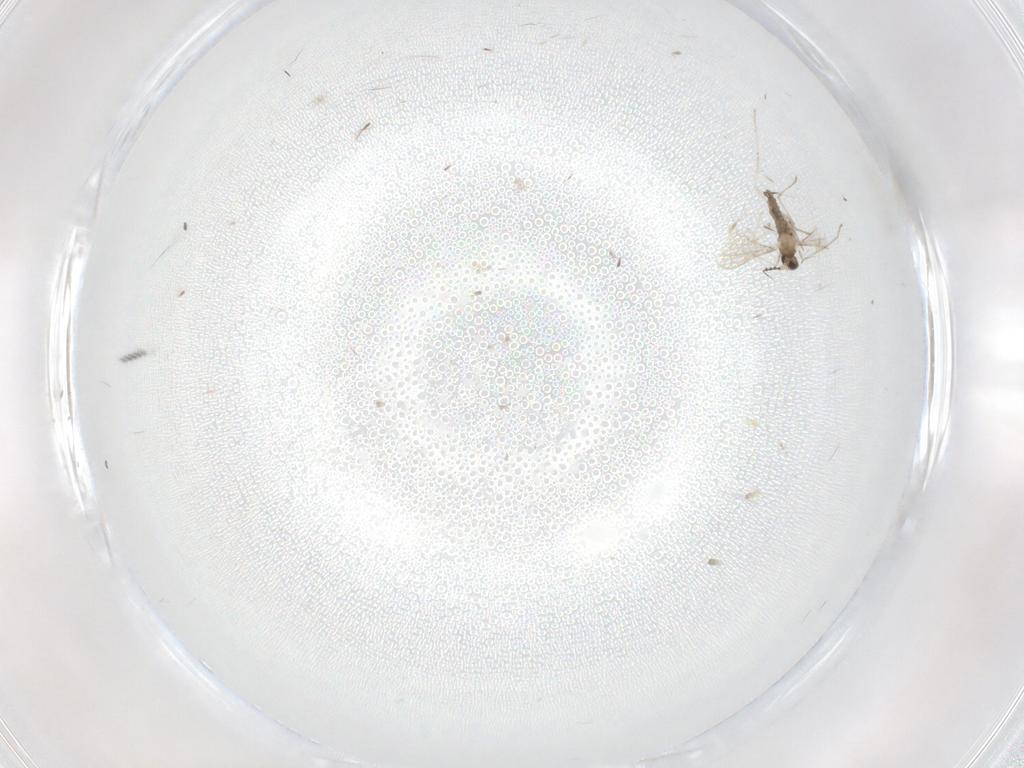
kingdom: Animalia
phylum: Arthropoda
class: Insecta
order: Diptera
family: Cecidomyiidae
